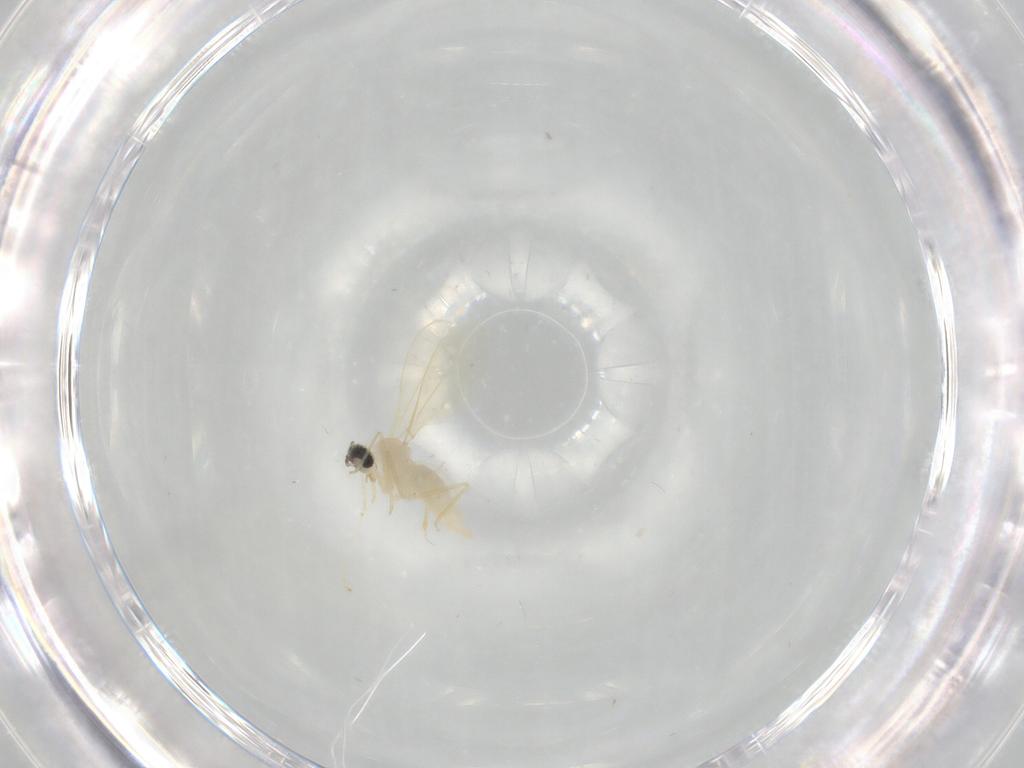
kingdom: Animalia
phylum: Arthropoda
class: Insecta
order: Diptera
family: Cecidomyiidae
